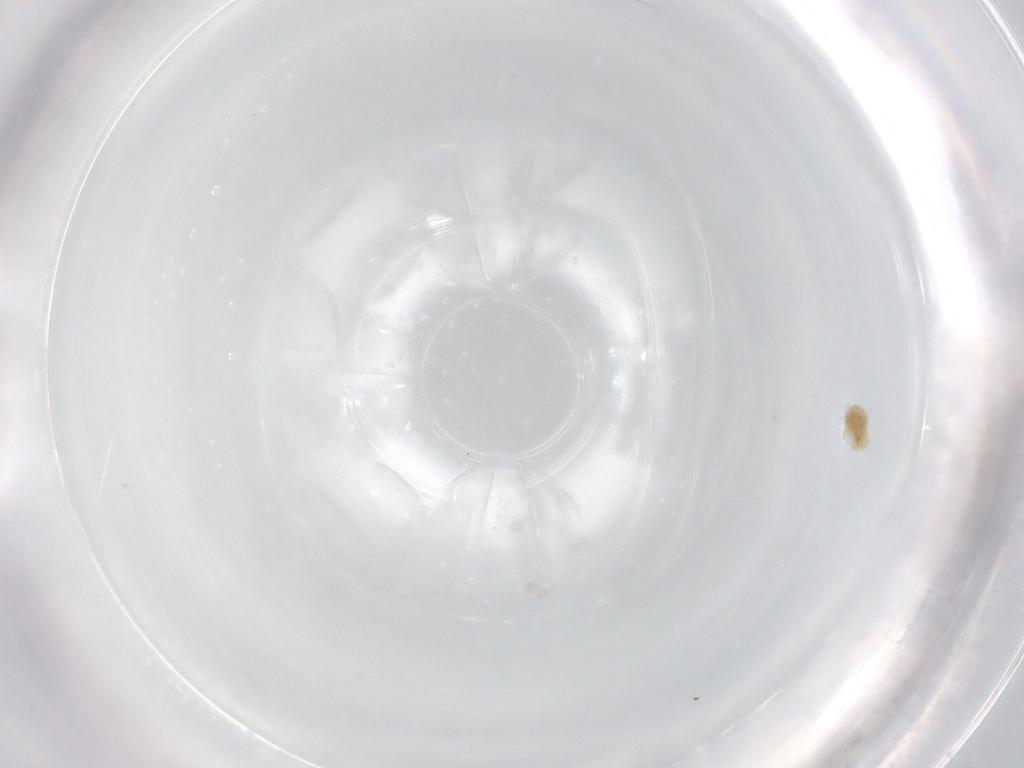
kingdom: Animalia
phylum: Arthropoda
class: Arachnida
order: Trombidiformes
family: Tydeidae
